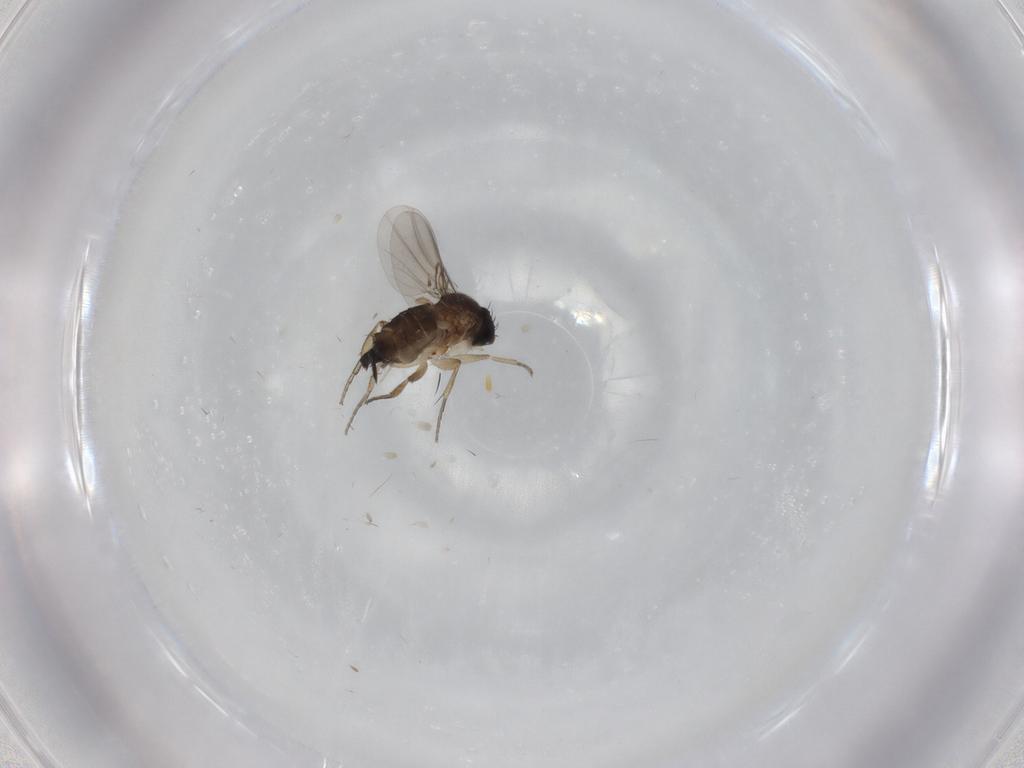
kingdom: Animalia
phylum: Arthropoda
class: Insecta
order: Diptera
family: Phoridae
